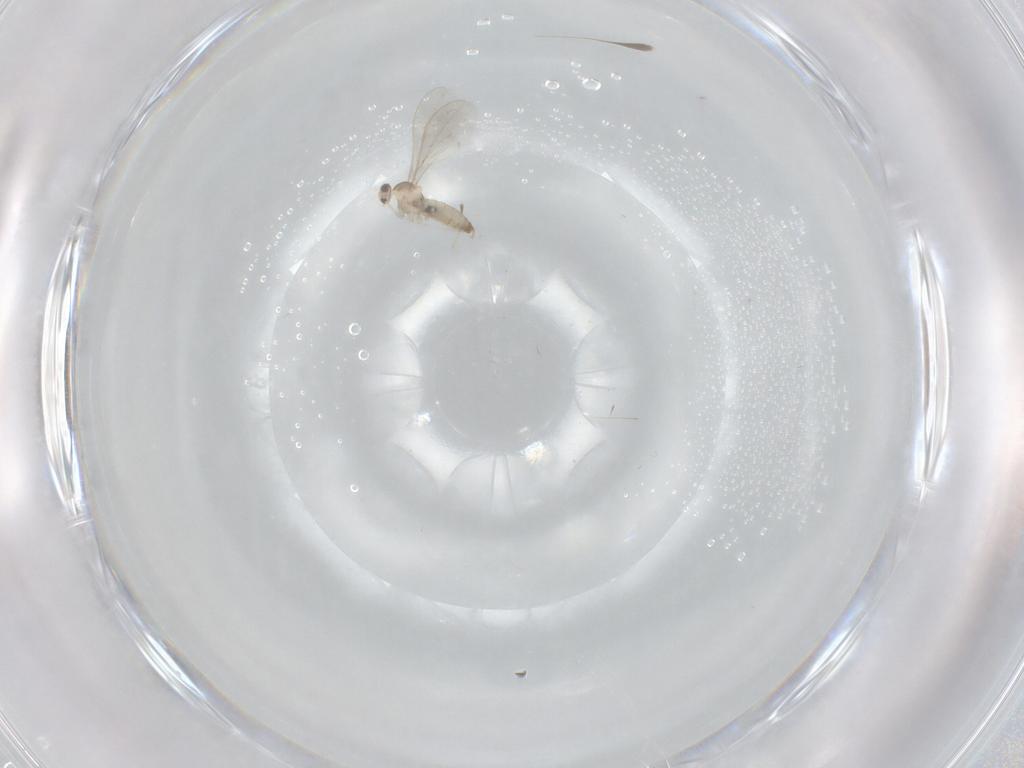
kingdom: Animalia
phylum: Arthropoda
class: Insecta
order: Diptera
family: Cecidomyiidae
